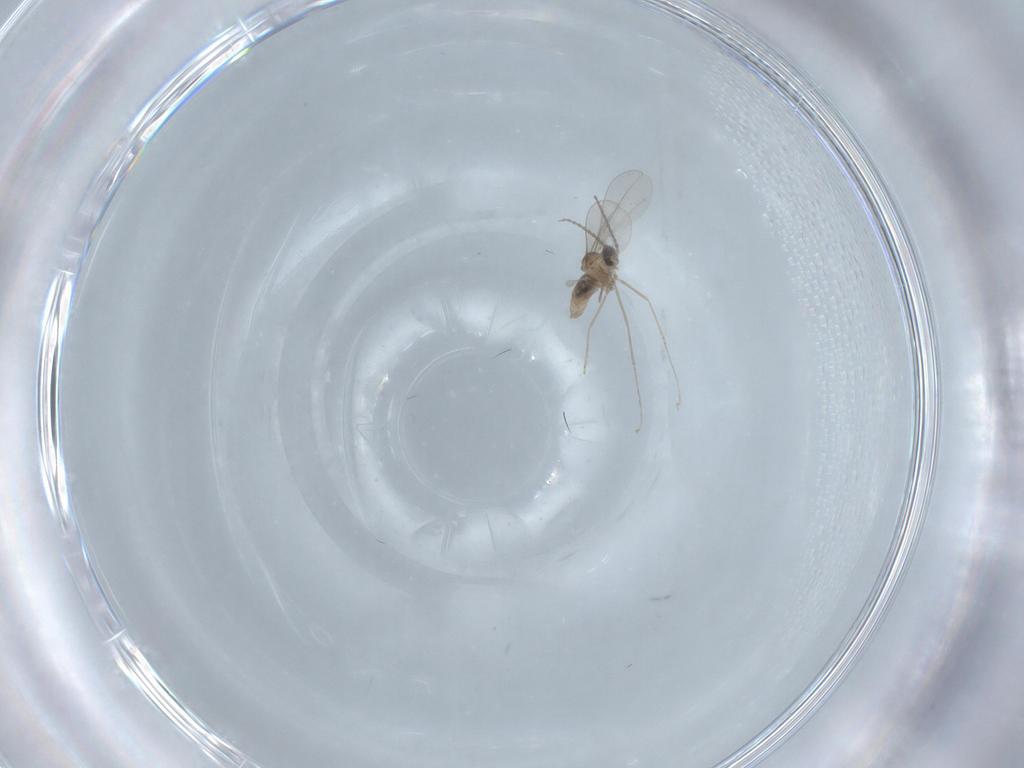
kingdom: Animalia
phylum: Arthropoda
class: Insecta
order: Diptera
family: Cecidomyiidae
